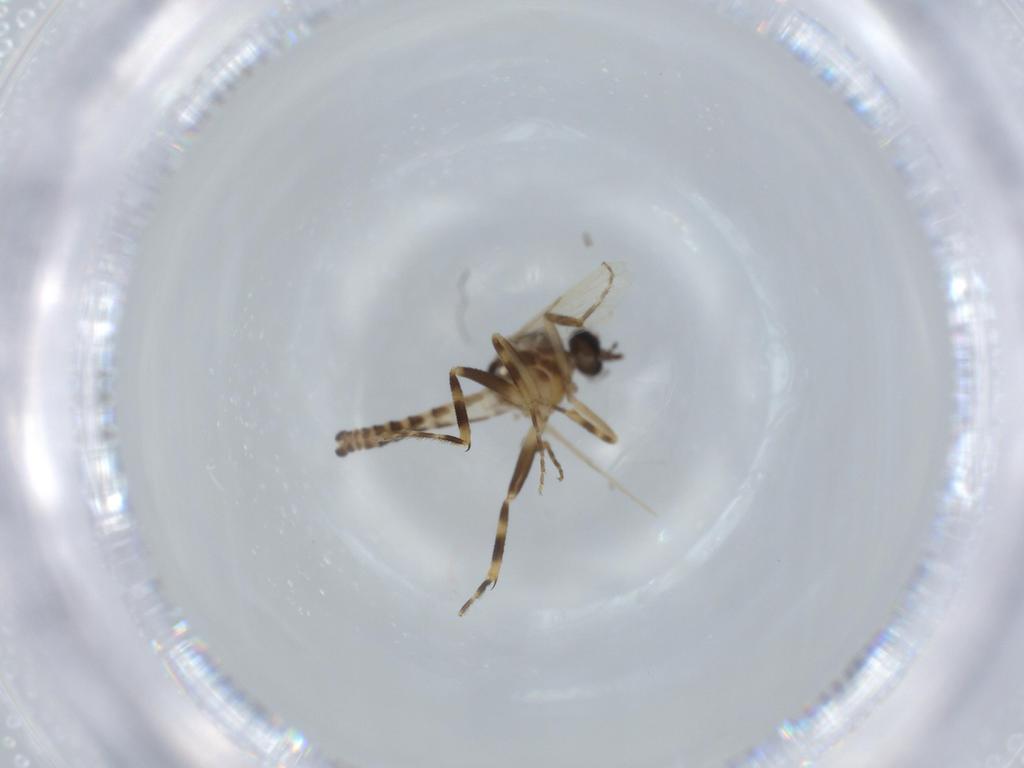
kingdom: Animalia
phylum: Arthropoda
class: Insecta
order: Diptera
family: Ceratopogonidae
